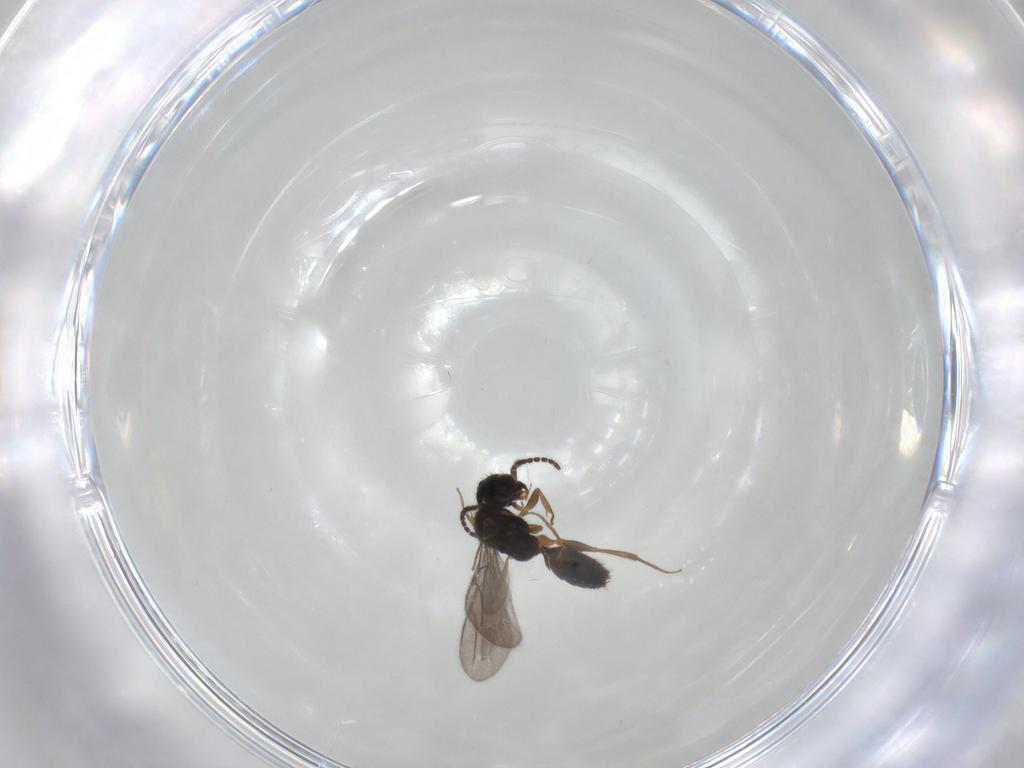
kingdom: Animalia
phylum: Arthropoda
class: Insecta
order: Hymenoptera
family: Bethylidae
